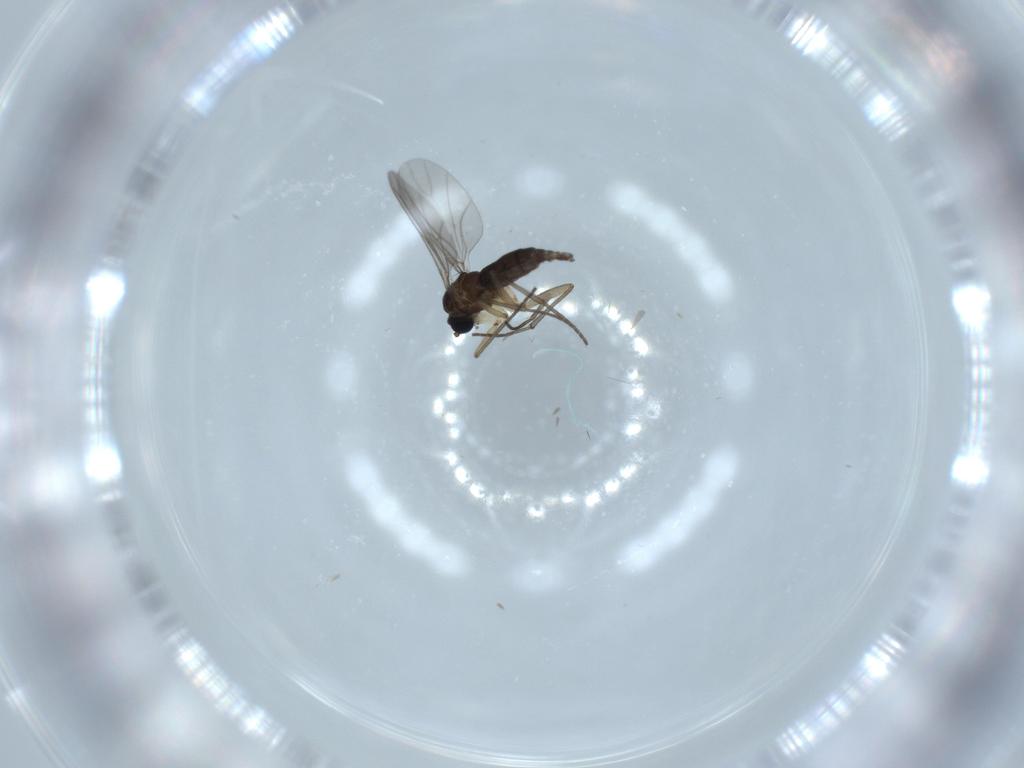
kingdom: Animalia
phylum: Arthropoda
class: Insecta
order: Diptera
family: Sciaridae
